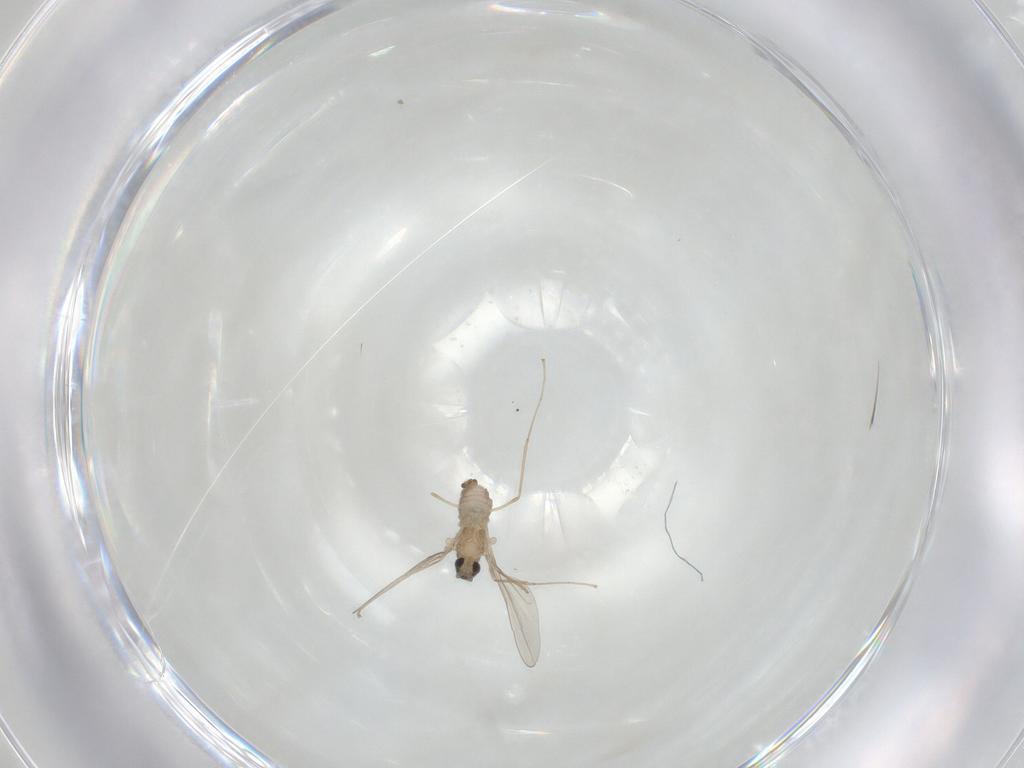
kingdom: Animalia
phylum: Arthropoda
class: Insecta
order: Diptera
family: Cecidomyiidae
